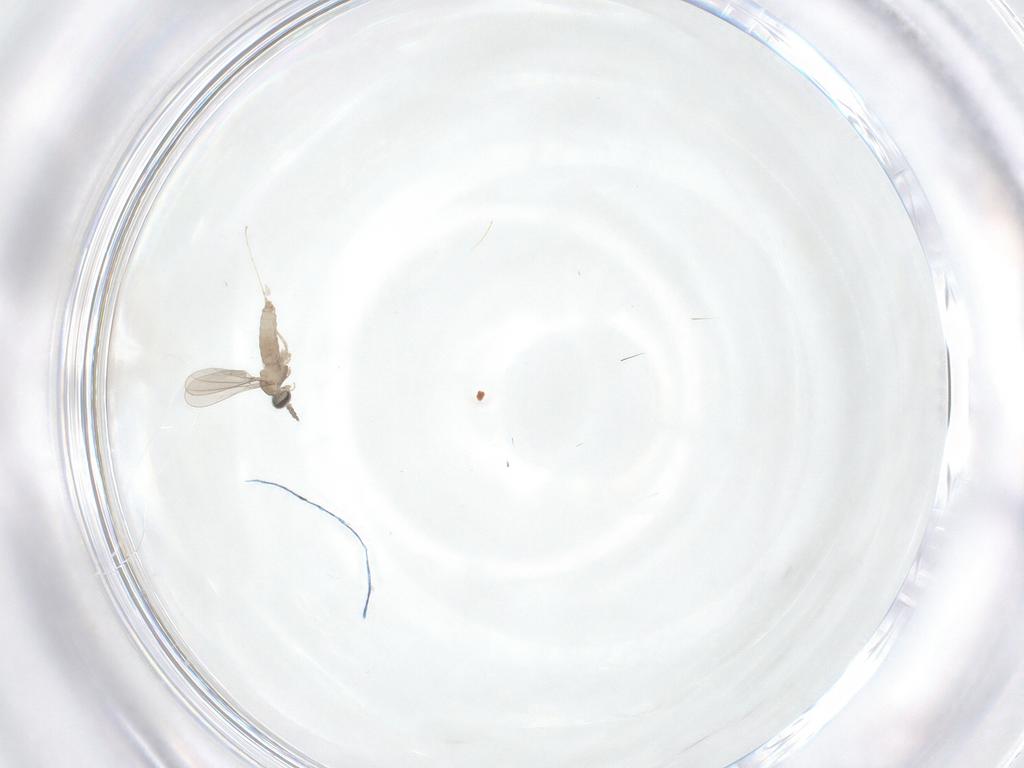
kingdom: Animalia
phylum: Arthropoda
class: Insecta
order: Diptera
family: Cecidomyiidae
